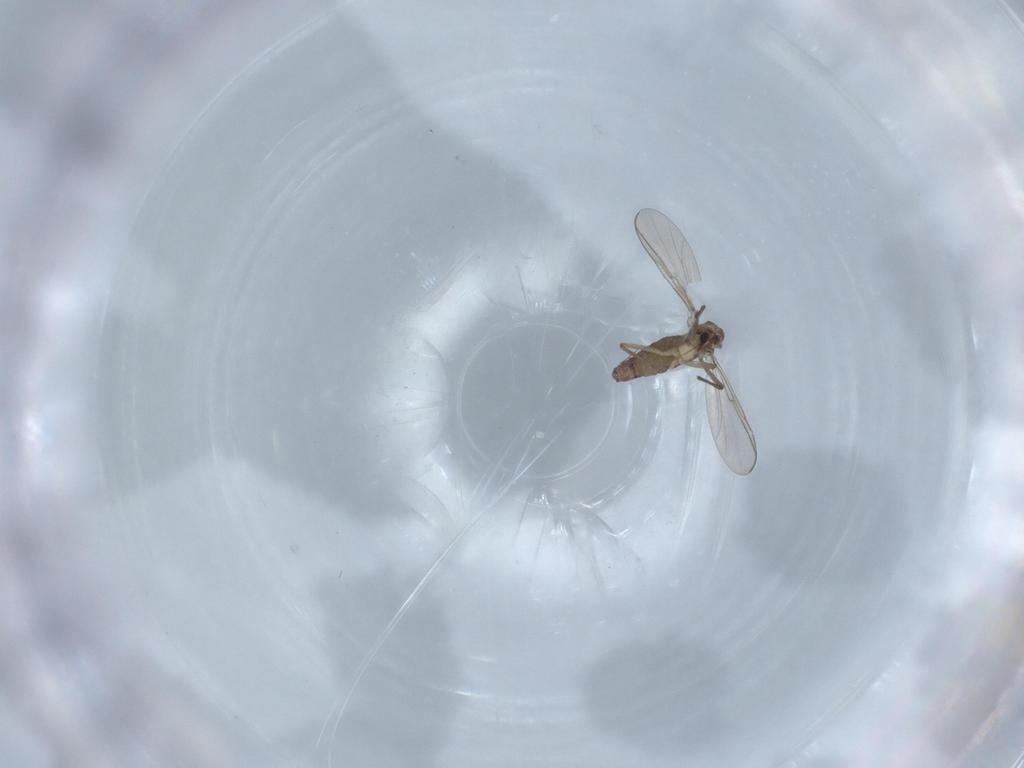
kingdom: Animalia
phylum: Arthropoda
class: Insecta
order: Diptera
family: Chironomidae
